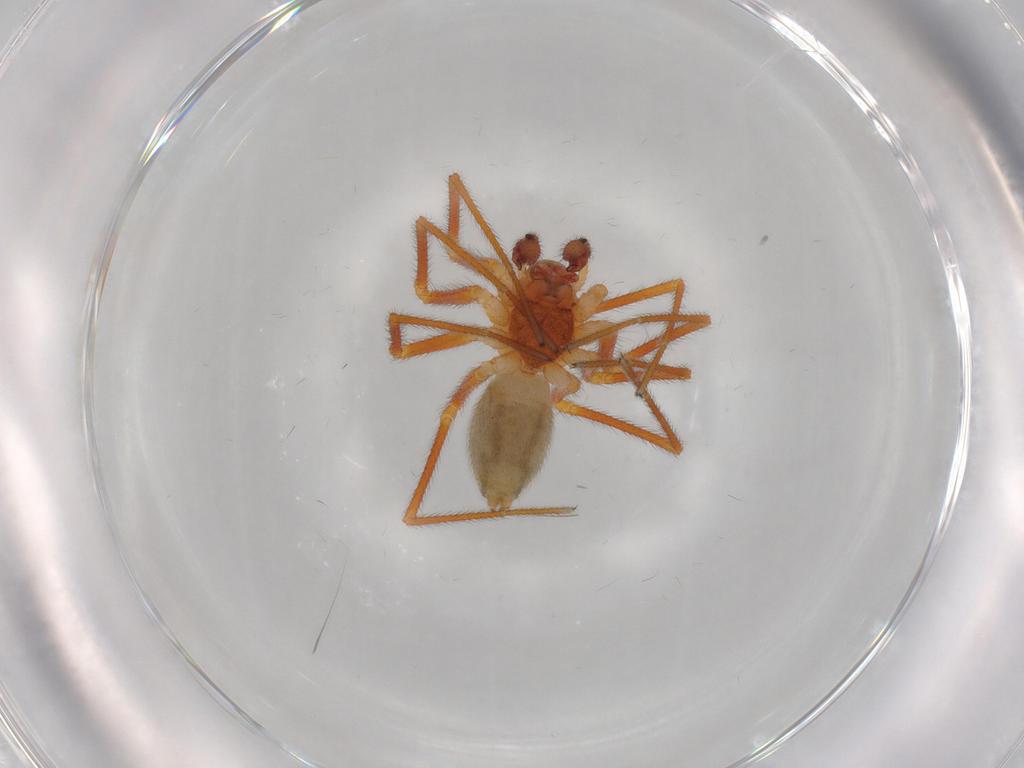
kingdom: Animalia
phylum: Arthropoda
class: Arachnida
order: Araneae
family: Linyphiidae
